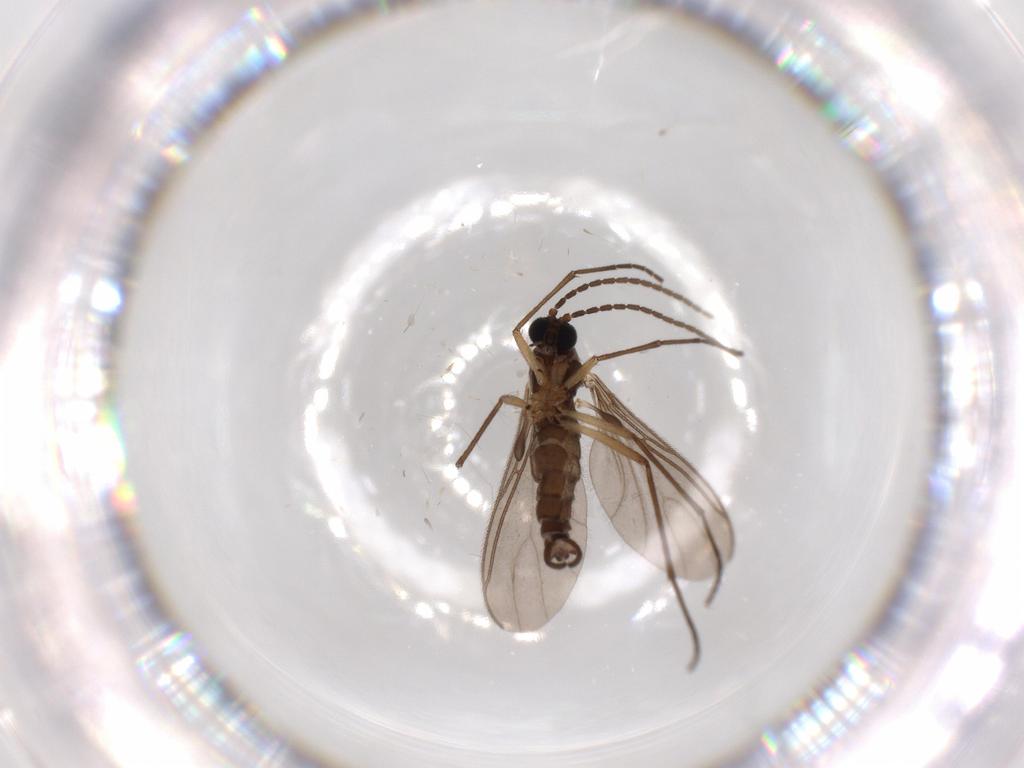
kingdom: Animalia
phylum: Arthropoda
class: Insecta
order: Diptera
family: Sciaridae
